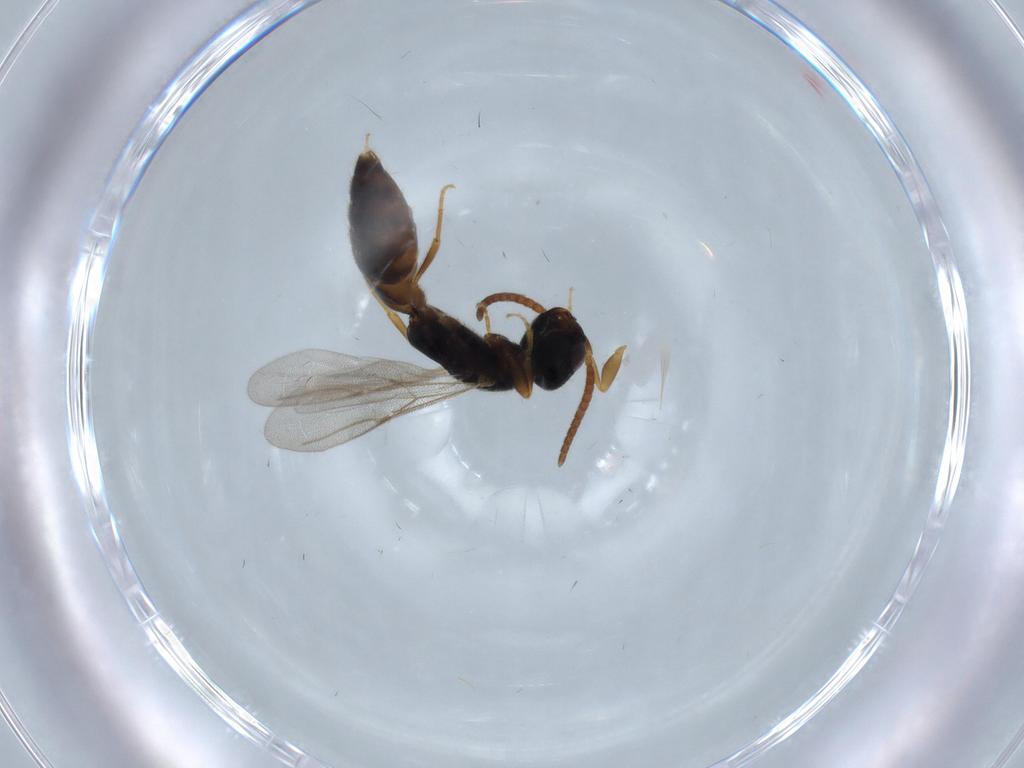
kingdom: Animalia
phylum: Arthropoda
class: Insecta
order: Hymenoptera
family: Bethylidae
